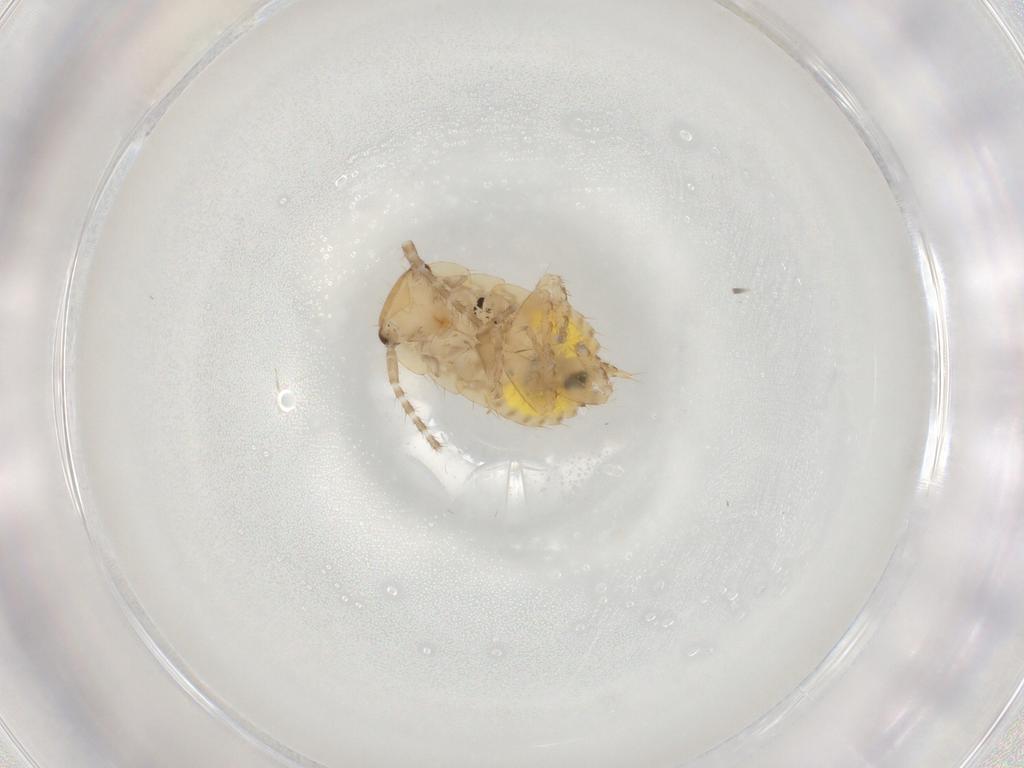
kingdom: Animalia
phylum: Arthropoda
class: Insecta
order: Blattodea
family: Ectobiidae
